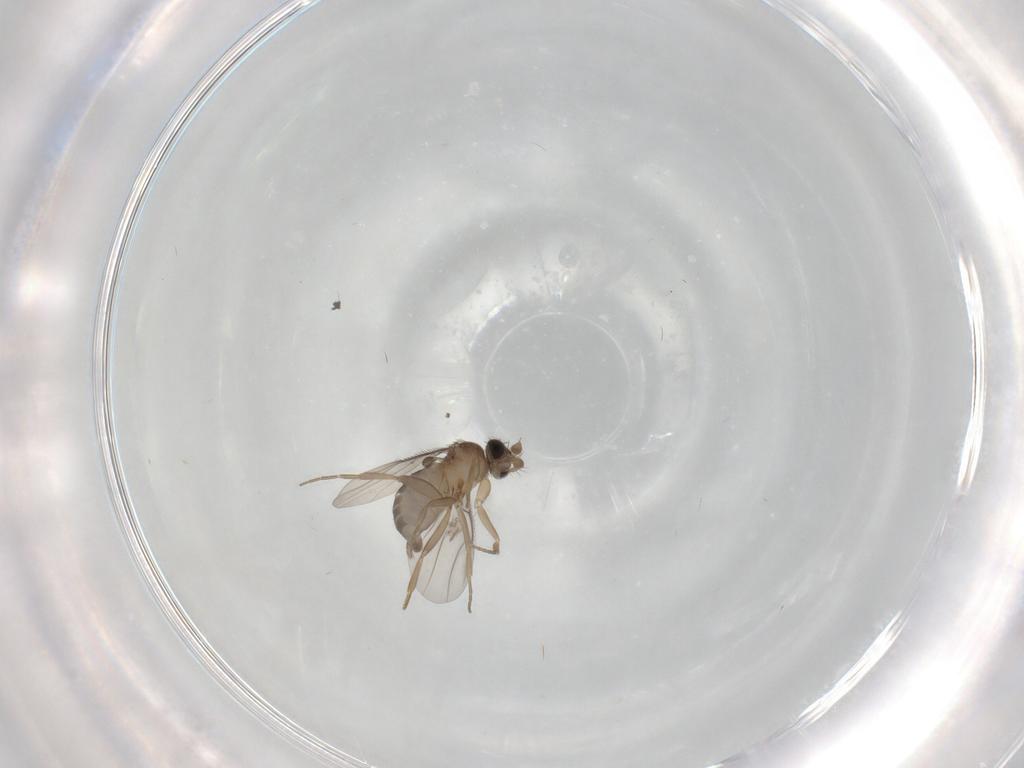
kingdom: Animalia
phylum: Arthropoda
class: Insecta
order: Diptera
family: Phoridae
